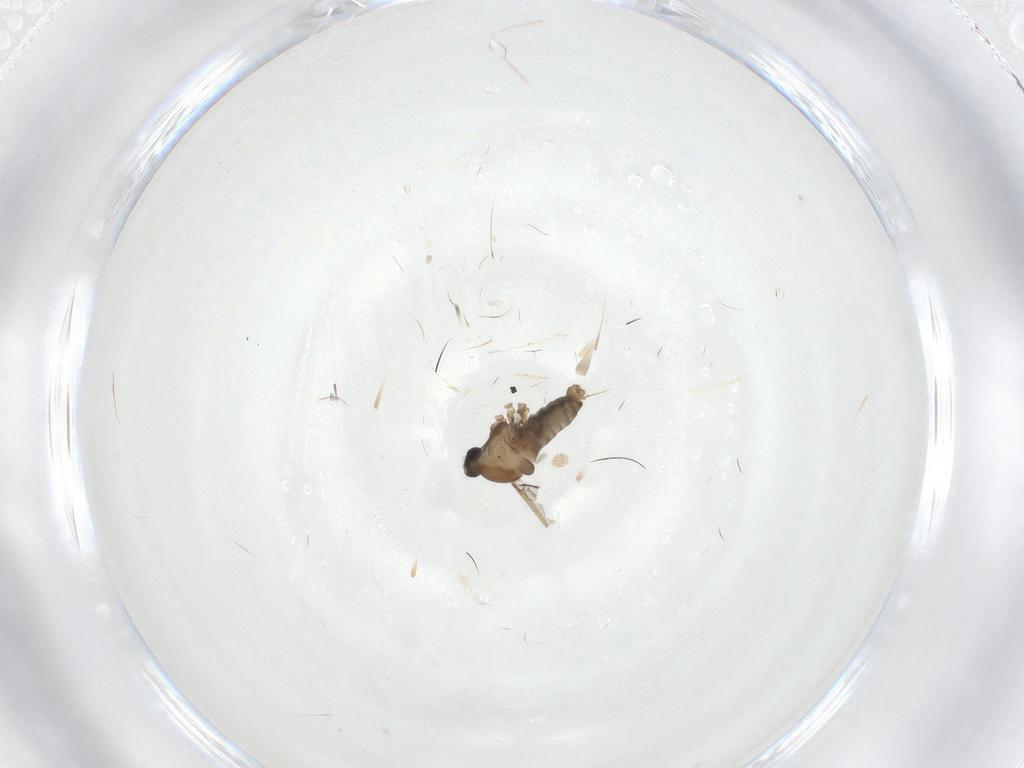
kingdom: Animalia
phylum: Arthropoda
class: Insecta
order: Diptera
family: Cecidomyiidae
